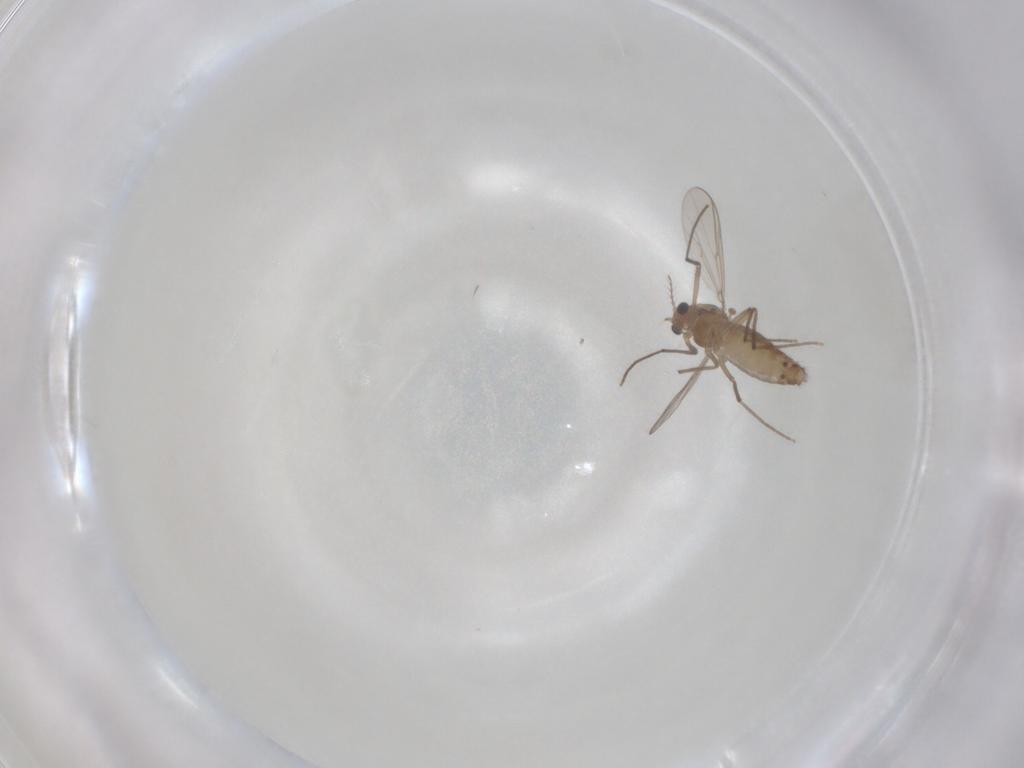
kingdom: Animalia
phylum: Arthropoda
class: Insecta
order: Diptera
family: Chironomidae
